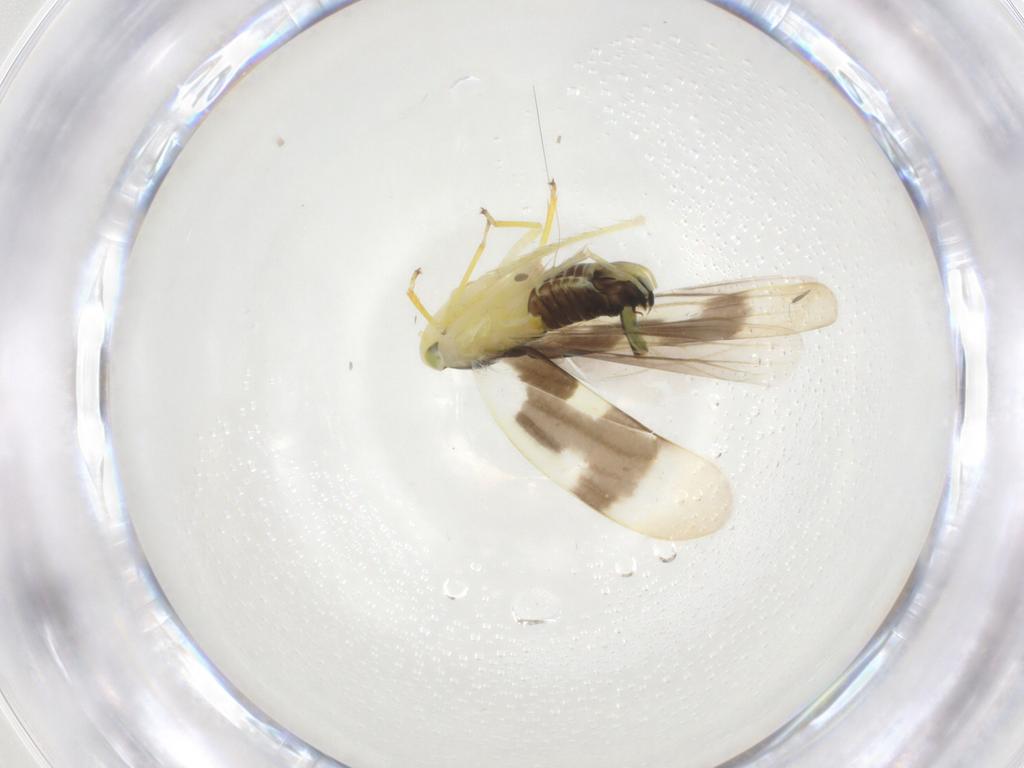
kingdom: Animalia
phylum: Arthropoda
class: Insecta
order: Hemiptera
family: Cicadellidae
